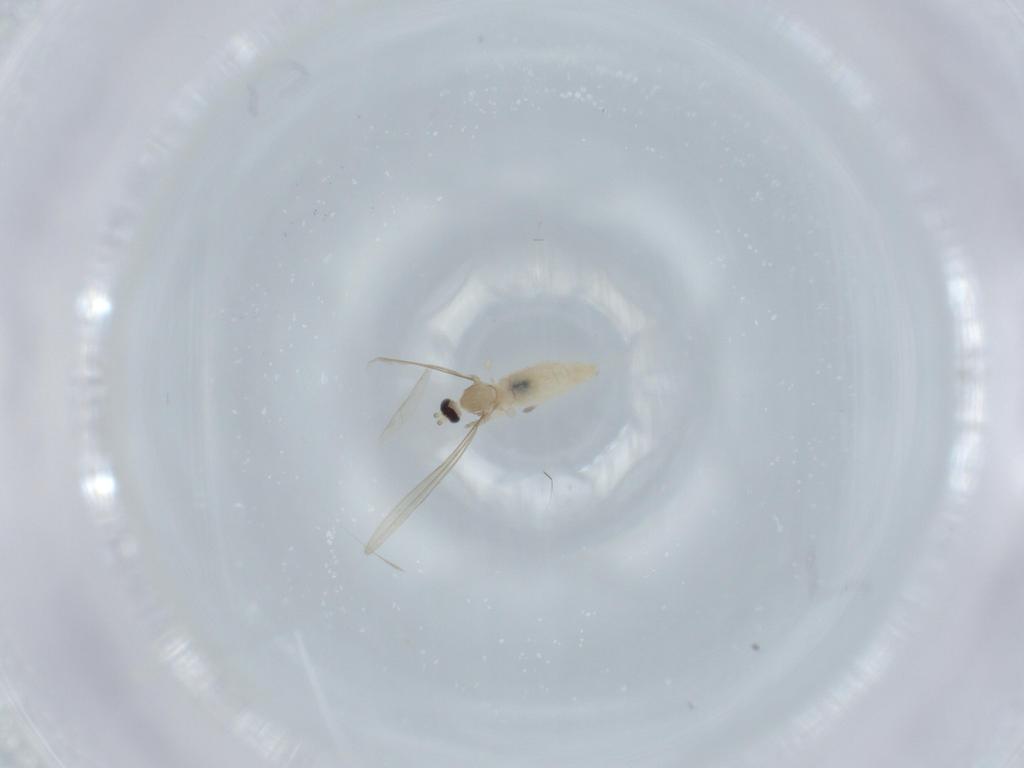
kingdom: Animalia
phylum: Arthropoda
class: Insecta
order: Diptera
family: Cecidomyiidae
